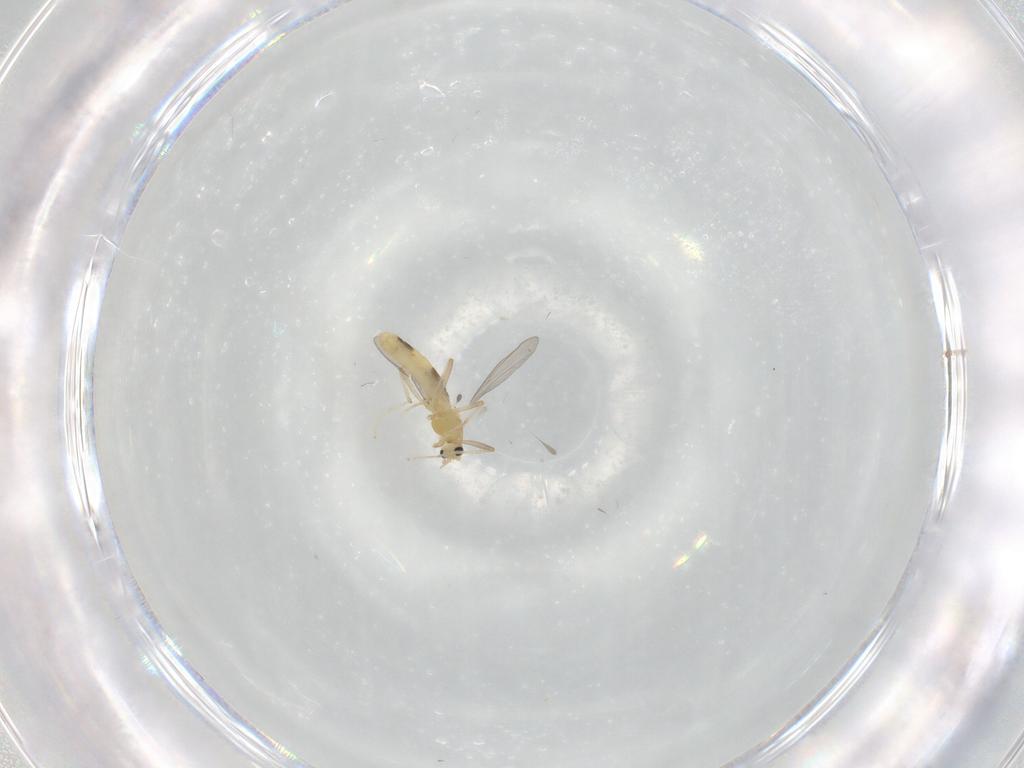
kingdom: Animalia
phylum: Arthropoda
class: Insecta
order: Diptera
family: Chironomidae
